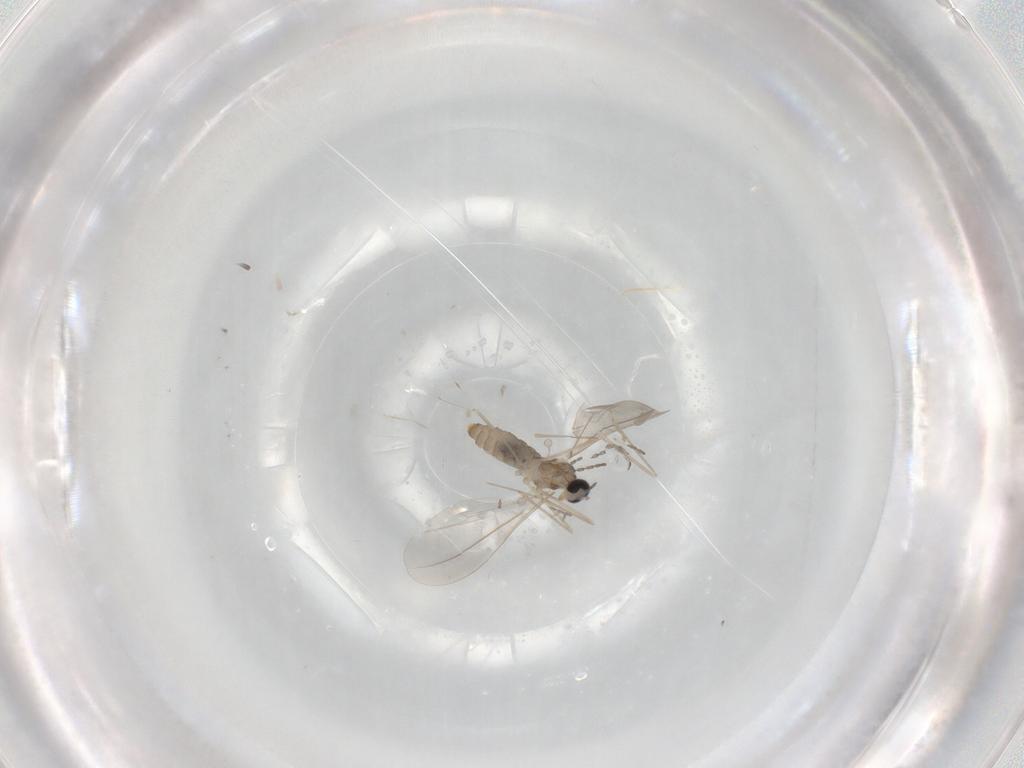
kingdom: Animalia
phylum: Arthropoda
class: Insecta
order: Diptera
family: Cecidomyiidae
